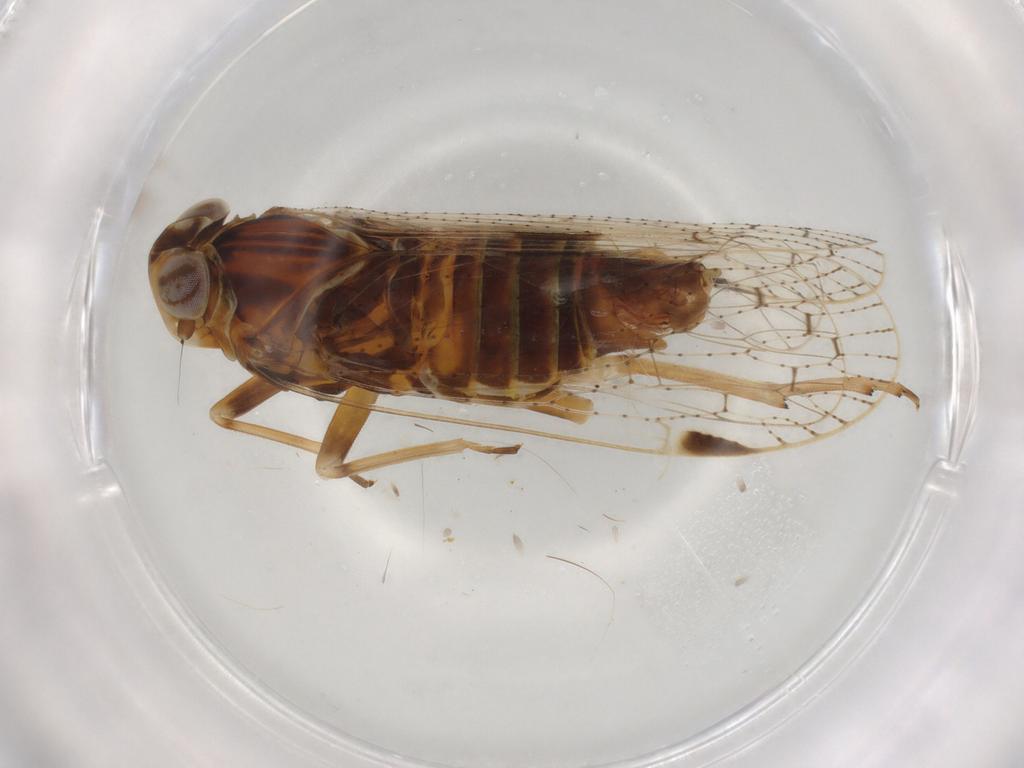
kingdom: Animalia
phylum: Arthropoda
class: Insecta
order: Hemiptera
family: Cixiidae
